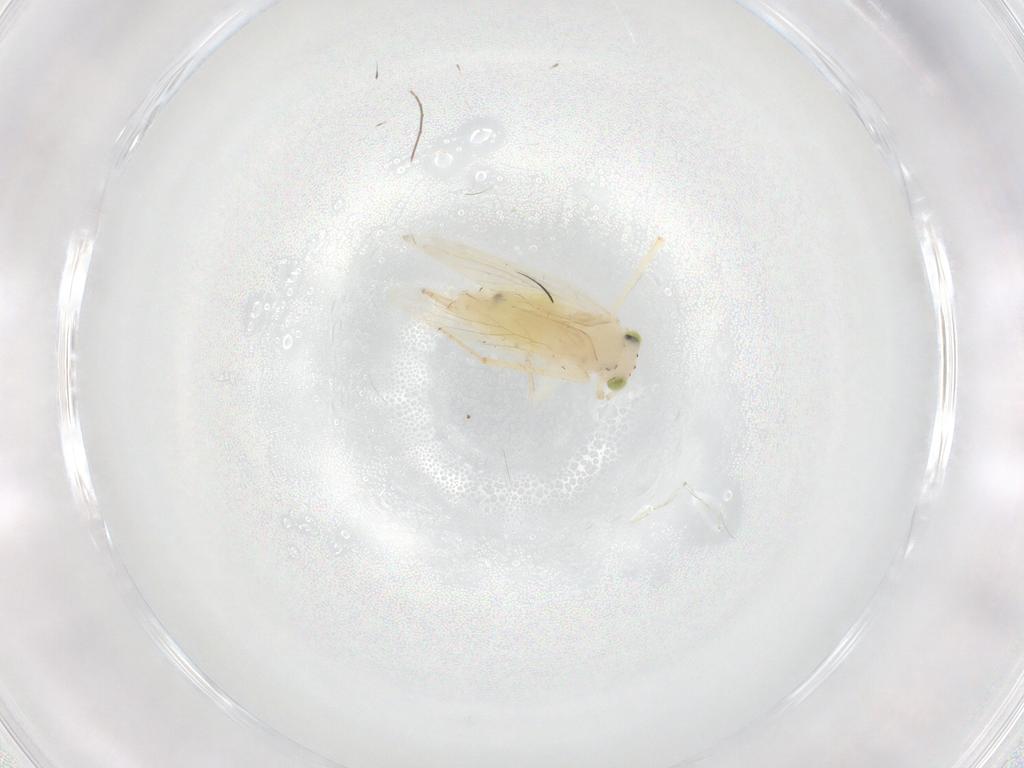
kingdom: Animalia
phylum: Arthropoda
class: Insecta
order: Psocodea
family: Lepidopsocidae
